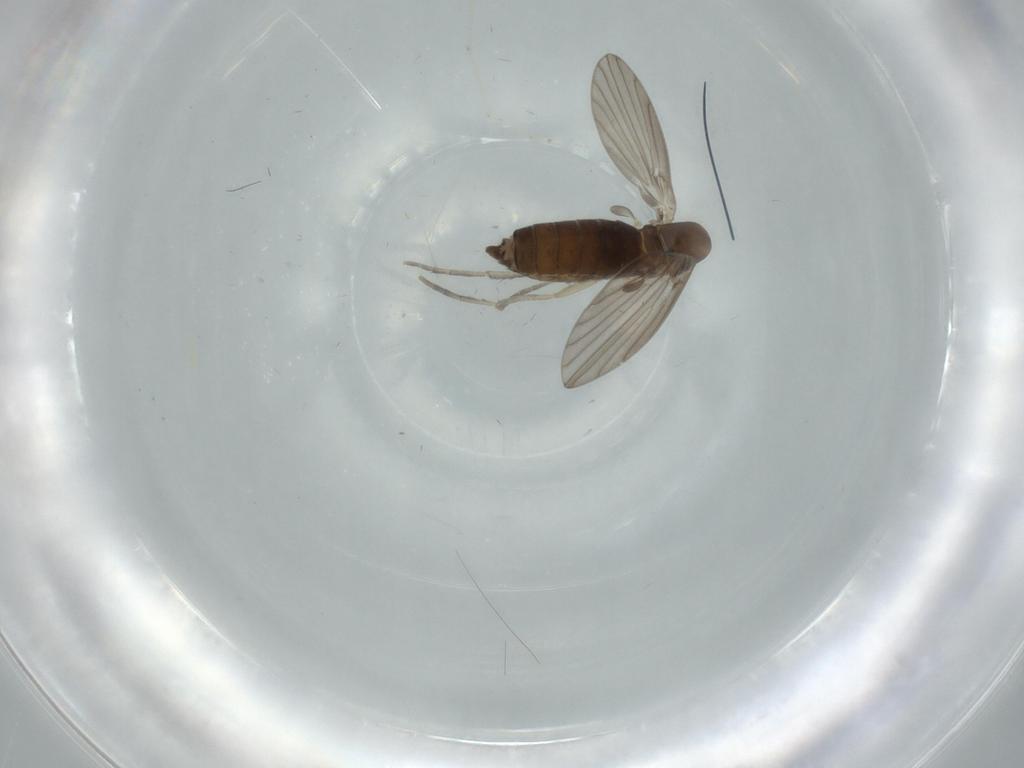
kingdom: Animalia
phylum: Arthropoda
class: Insecta
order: Diptera
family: Cecidomyiidae
